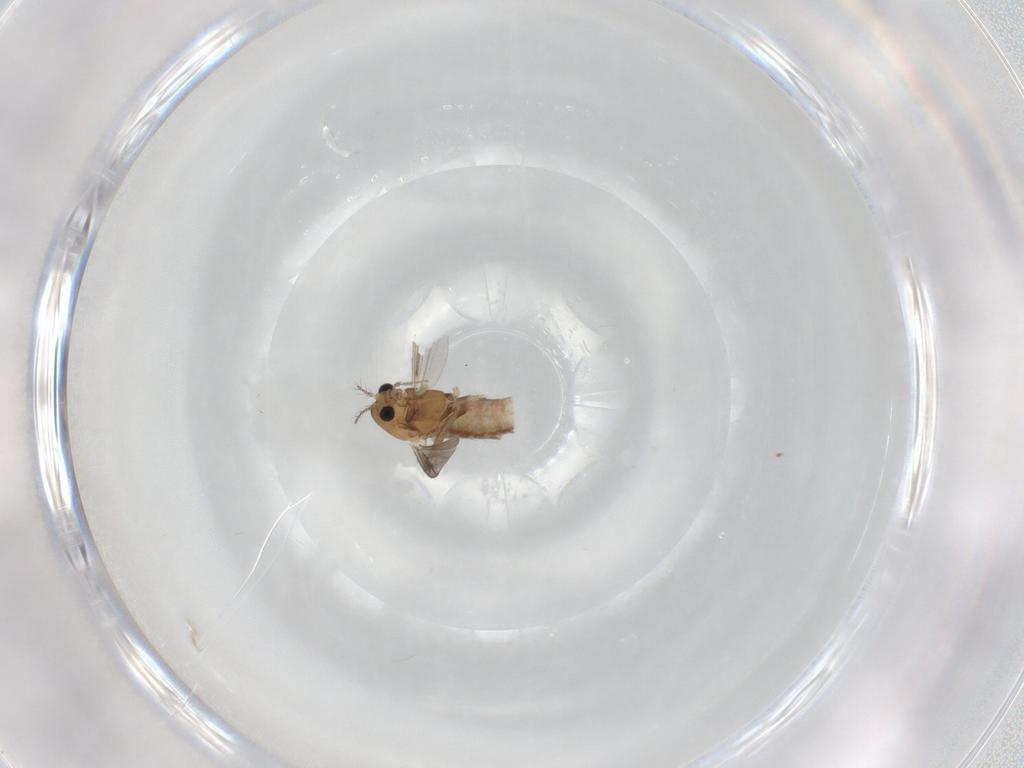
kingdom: Animalia
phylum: Arthropoda
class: Insecta
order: Diptera
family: Chironomidae
